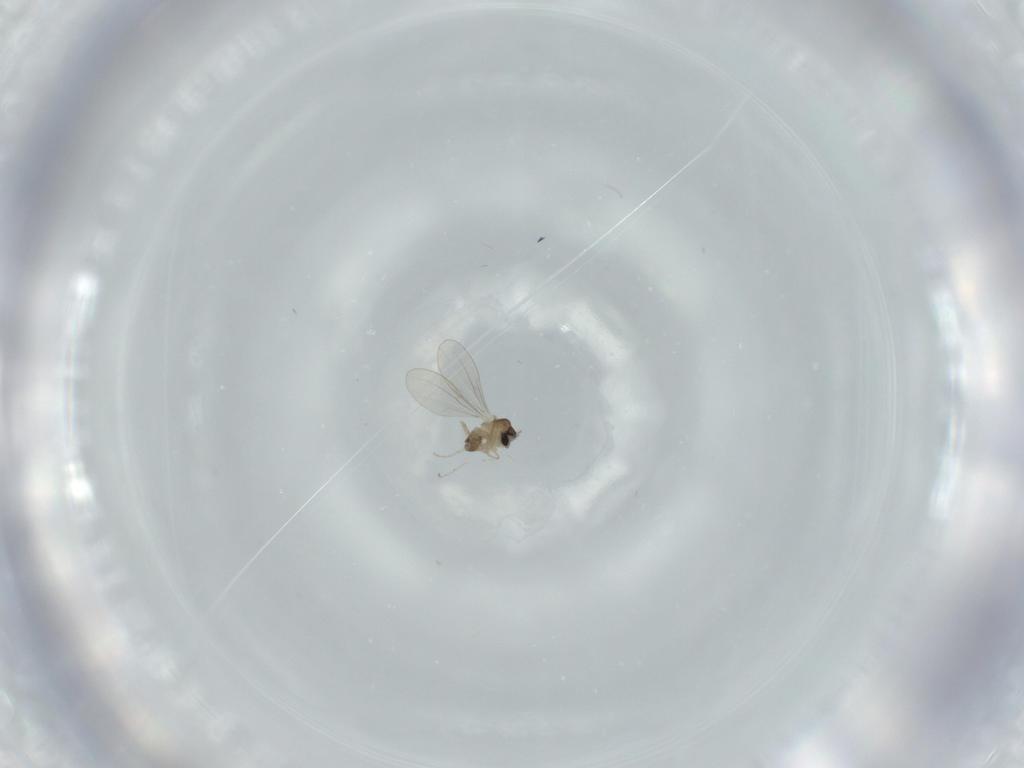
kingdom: Animalia
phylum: Arthropoda
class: Insecta
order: Diptera
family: Cecidomyiidae
